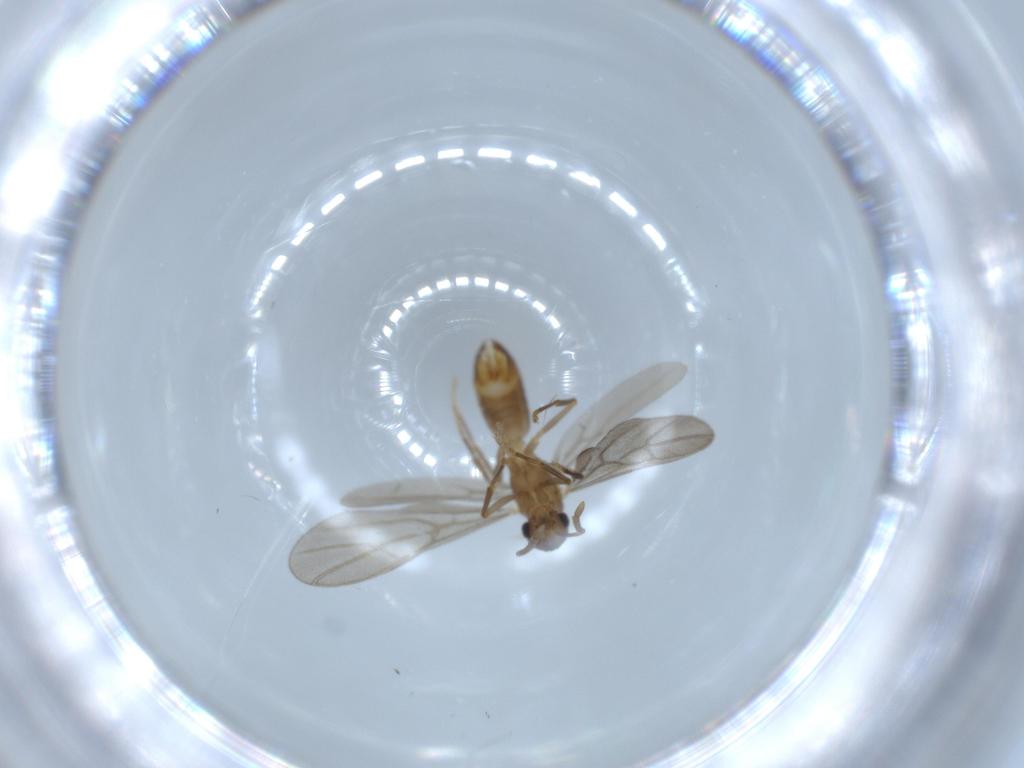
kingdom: Animalia
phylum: Arthropoda
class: Insecta
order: Hymenoptera
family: Formicidae
